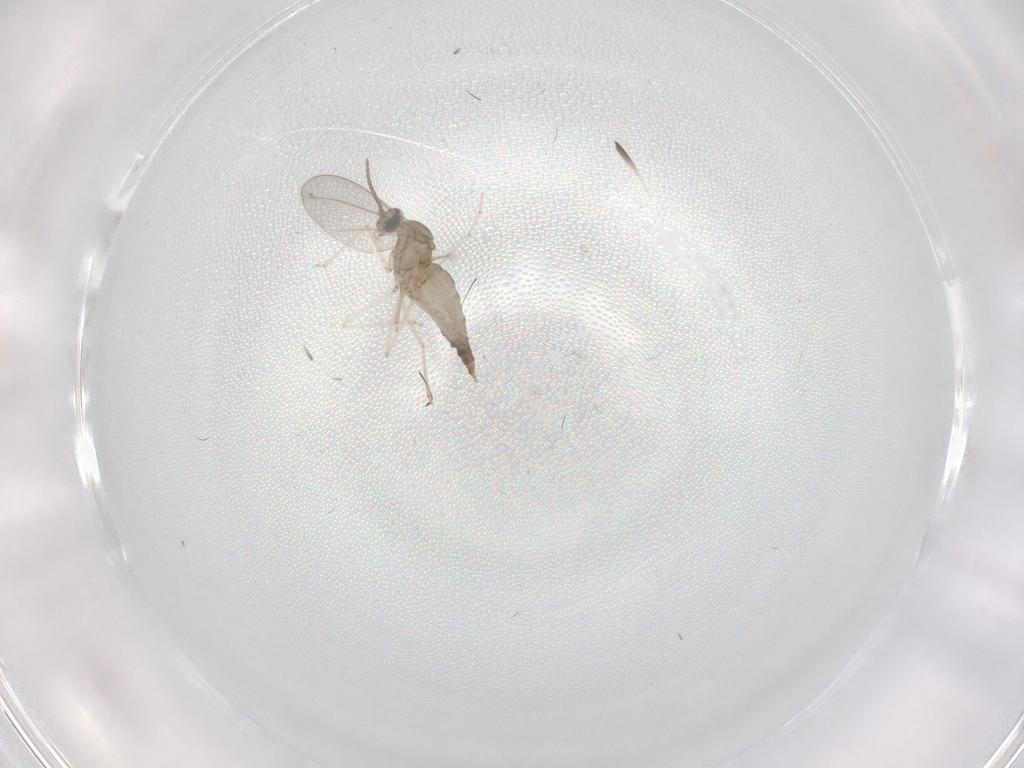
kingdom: Animalia
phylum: Arthropoda
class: Insecta
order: Diptera
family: Cecidomyiidae
